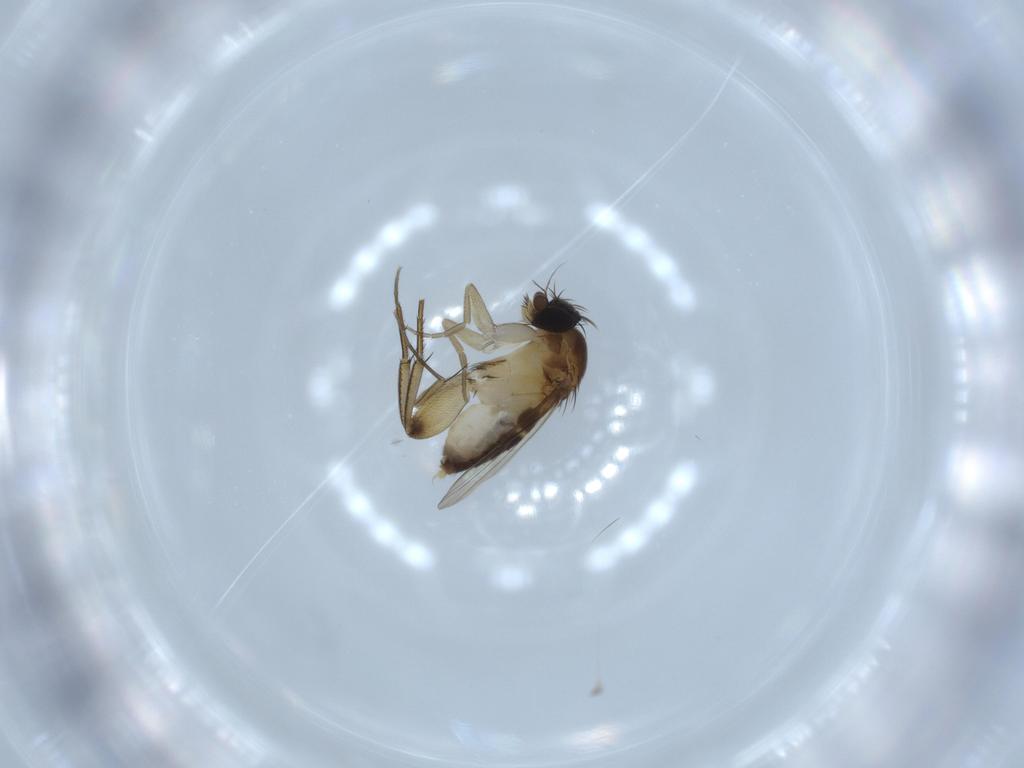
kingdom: Animalia
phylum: Arthropoda
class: Insecta
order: Diptera
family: Phoridae
